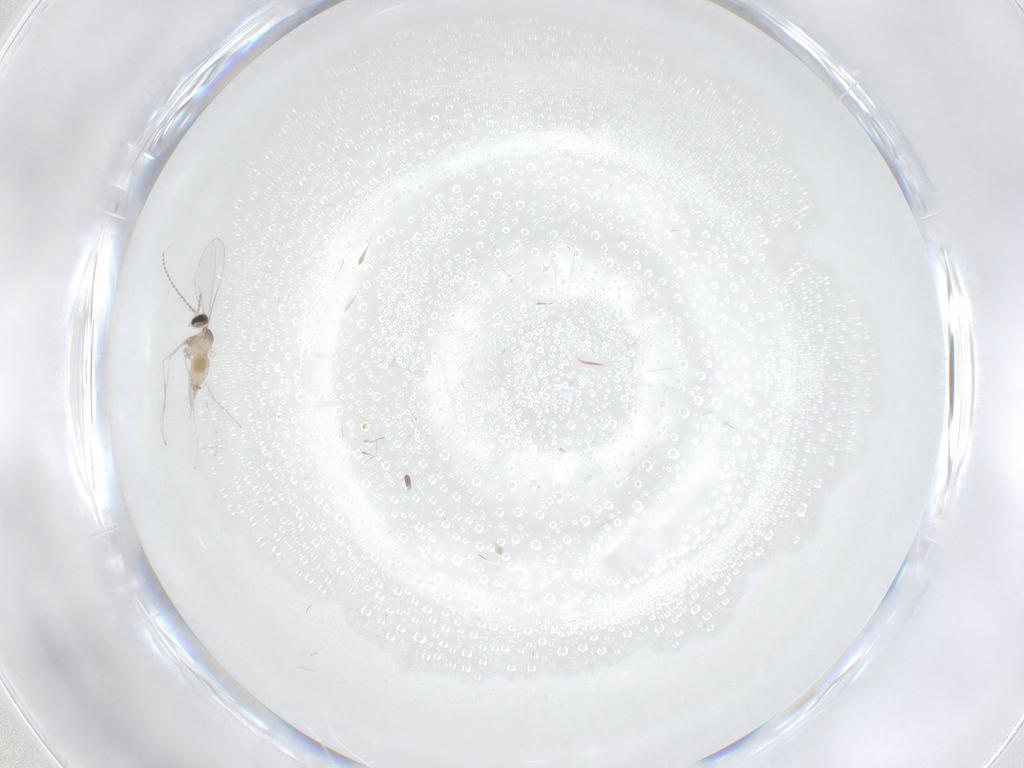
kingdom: Animalia
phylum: Arthropoda
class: Insecta
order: Diptera
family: Cecidomyiidae
